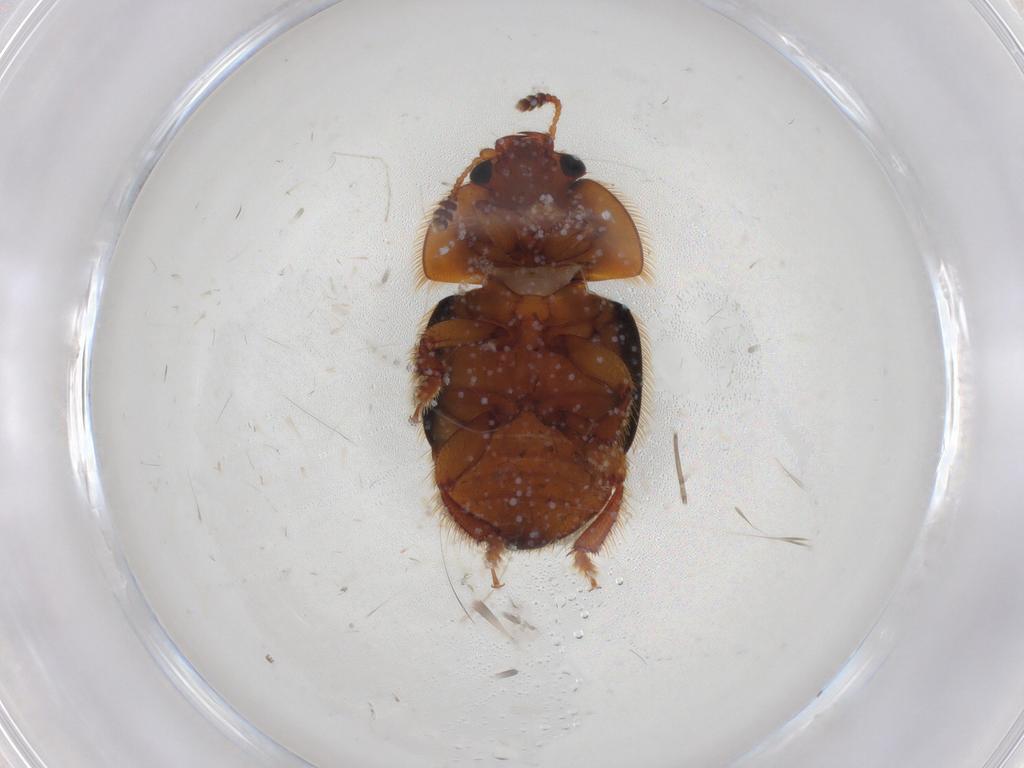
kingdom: Animalia
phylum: Arthropoda
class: Insecta
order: Coleoptera
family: Nitidulidae
